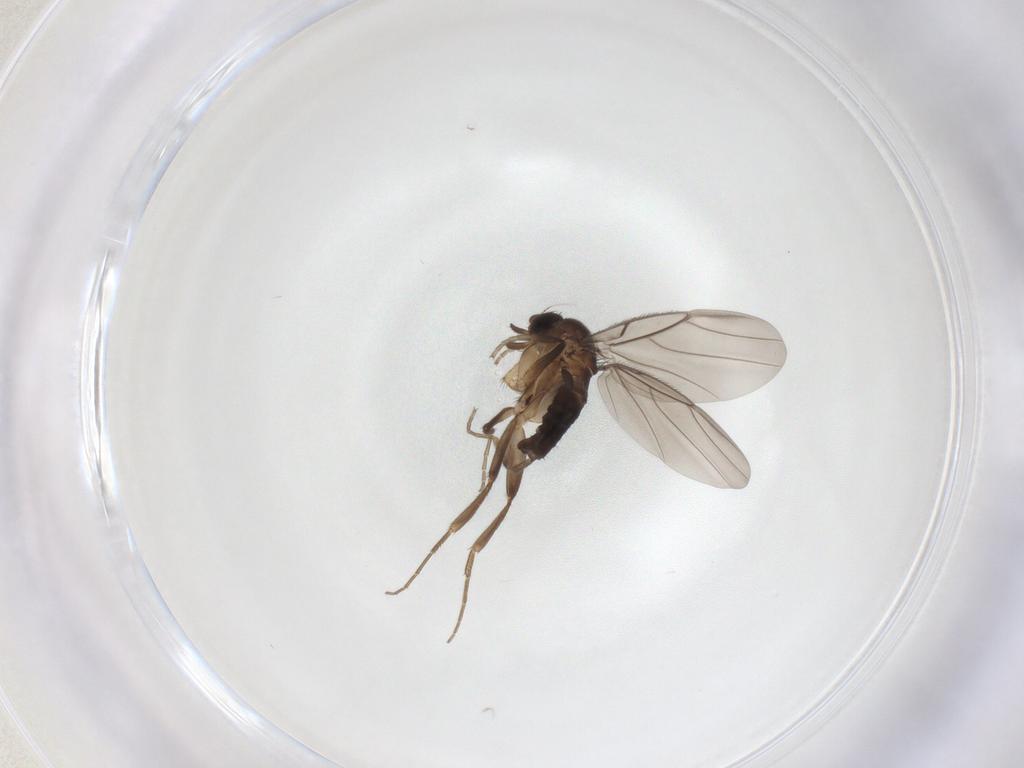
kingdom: Animalia
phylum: Arthropoda
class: Insecta
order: Diptera
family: Phoridae
